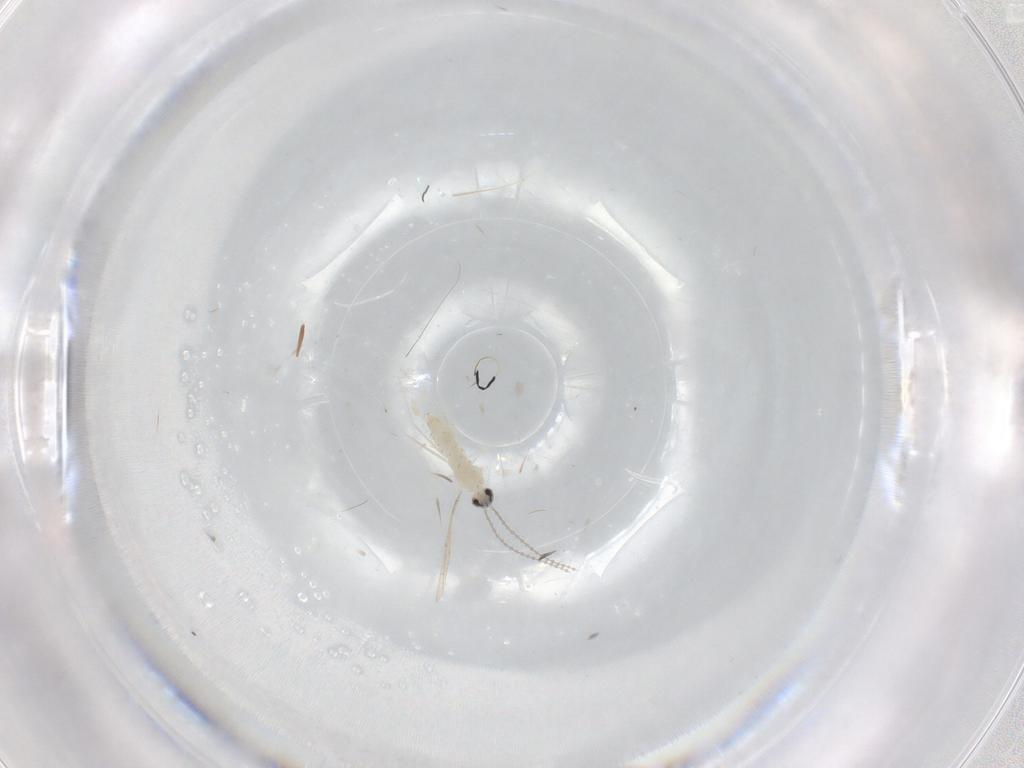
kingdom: Animalia
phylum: Arthropoda
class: Insecta
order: Diptera
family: Cecidomyiidae
